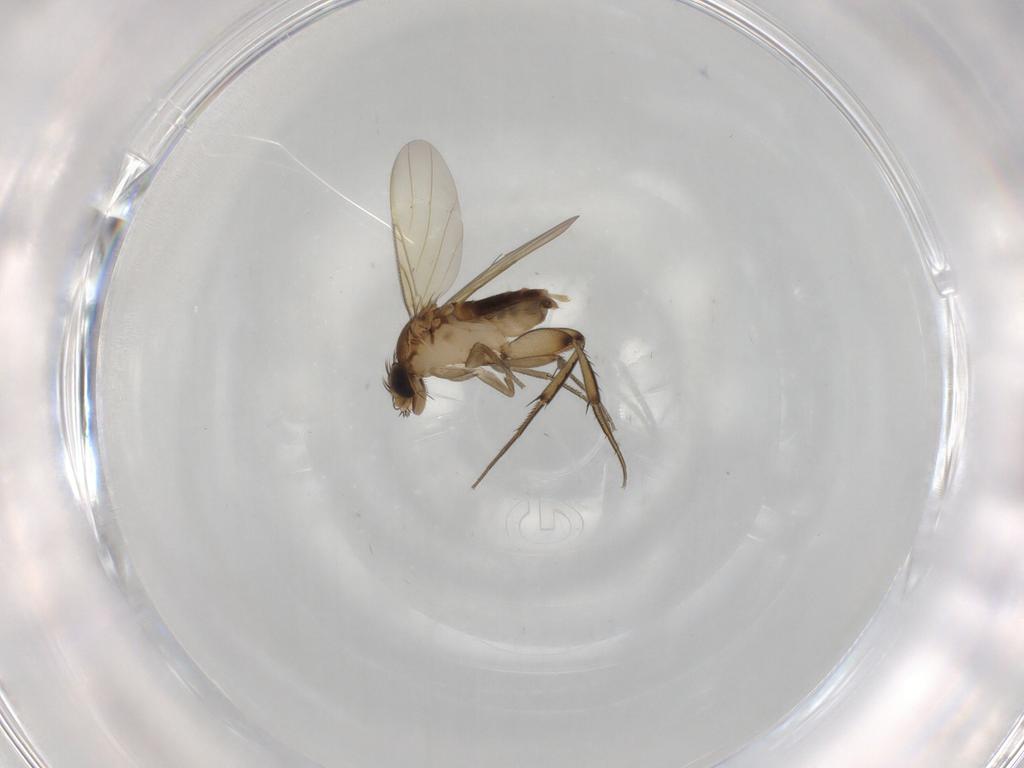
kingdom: Animalia
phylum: Arthropoda
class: Insecta
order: Diptera
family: Phoridae
